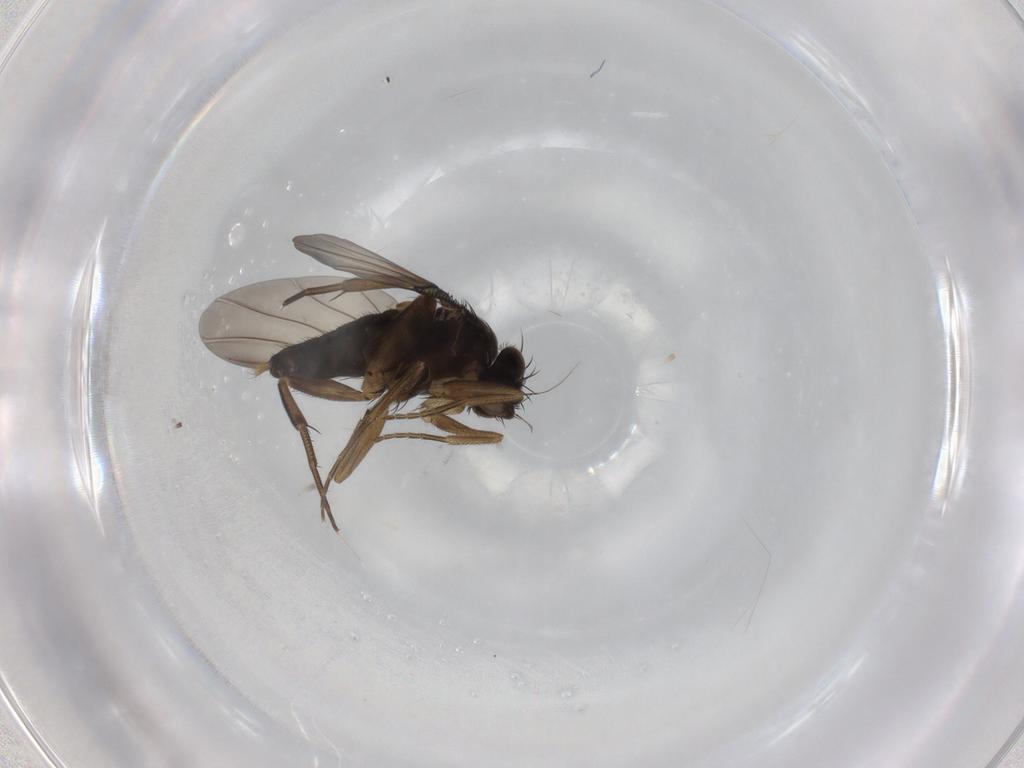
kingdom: Animalia
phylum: Arthropoda
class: Insecta
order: Diptera
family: Phoridae
